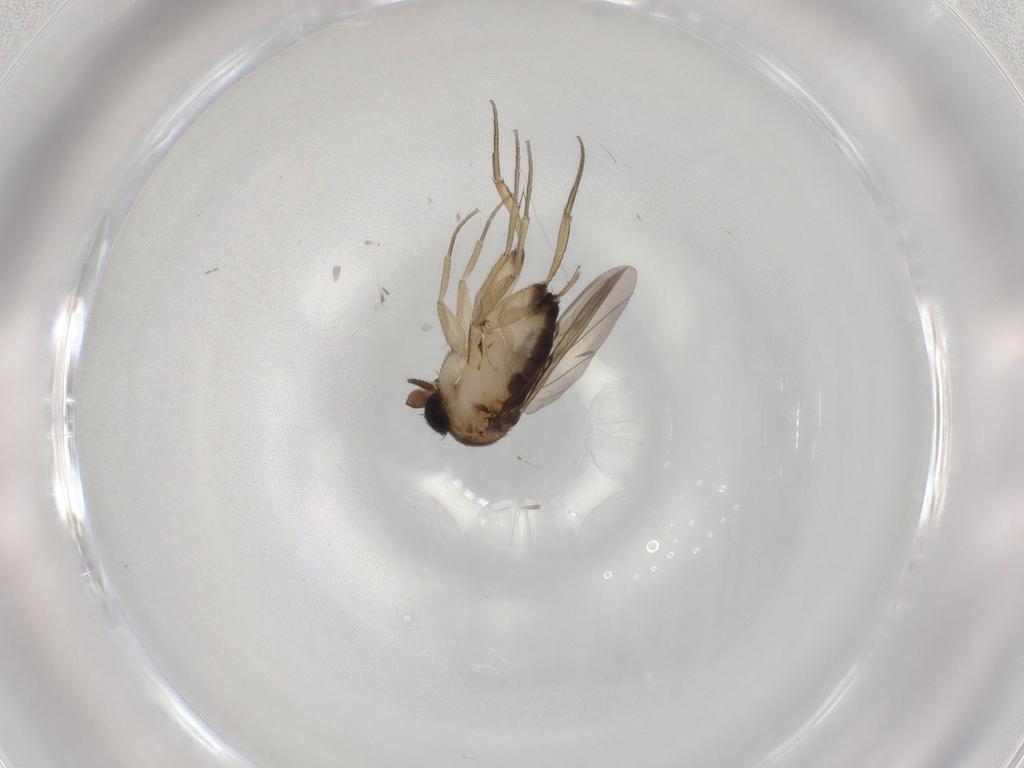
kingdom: Animalia
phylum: Arthropoda
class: Insecta
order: Diptera
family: Phoridae
